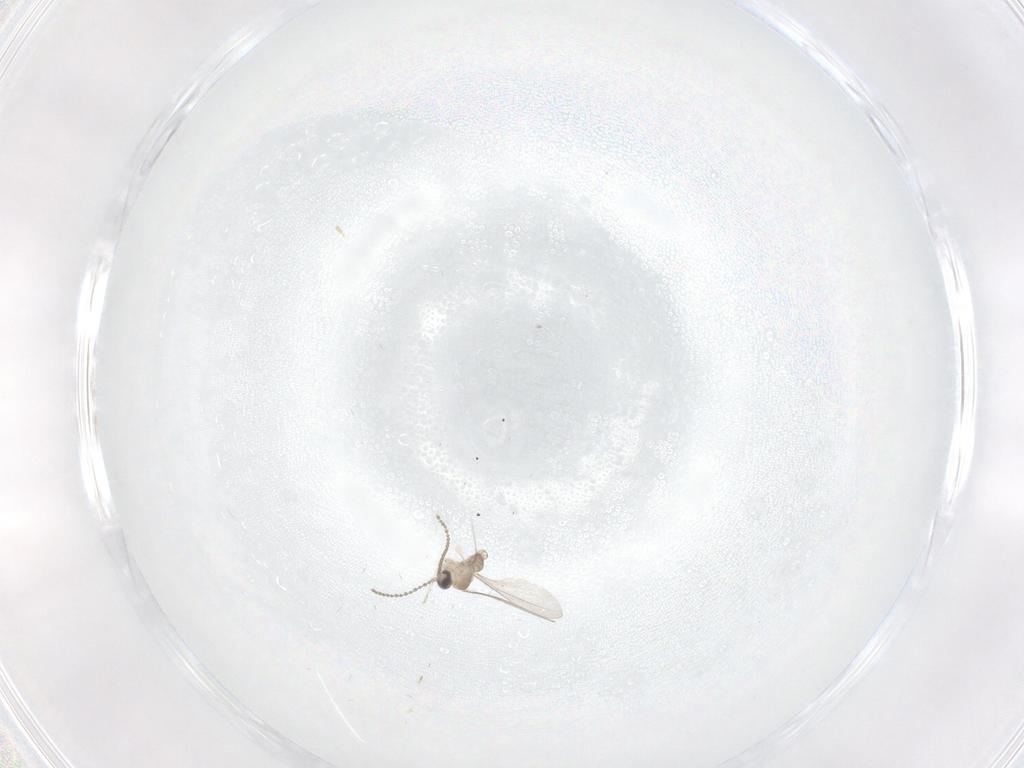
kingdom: Animalia
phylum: Arthropoda
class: Insecta
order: Diptera
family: Cecidomyiidae
